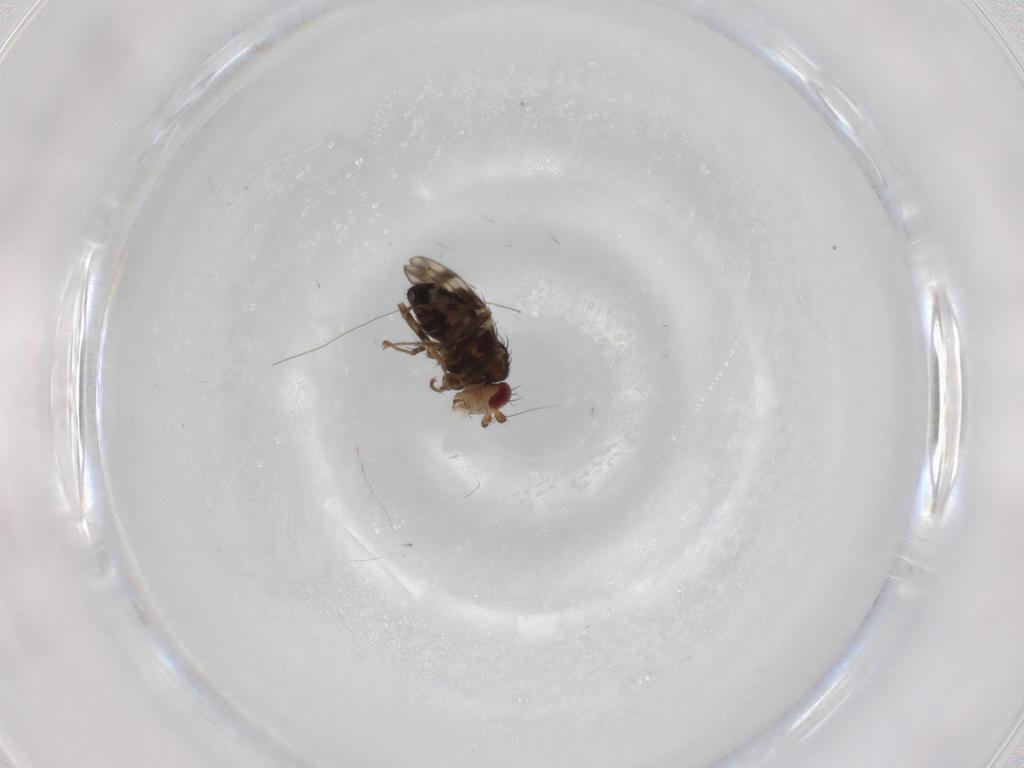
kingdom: Animalia
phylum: Arthropoda
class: Insecta
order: Diptera
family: Sphaeroceridae
